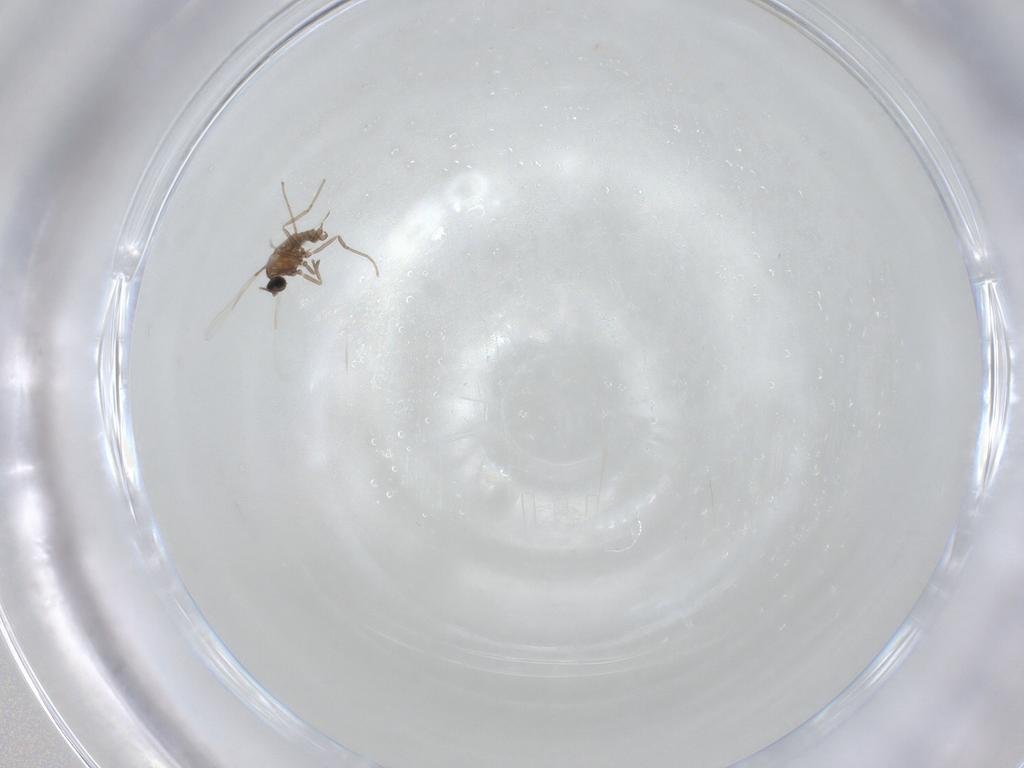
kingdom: Animalia
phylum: Arthropoda
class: Insecta
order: Diptera
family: Cecidomyiidae
